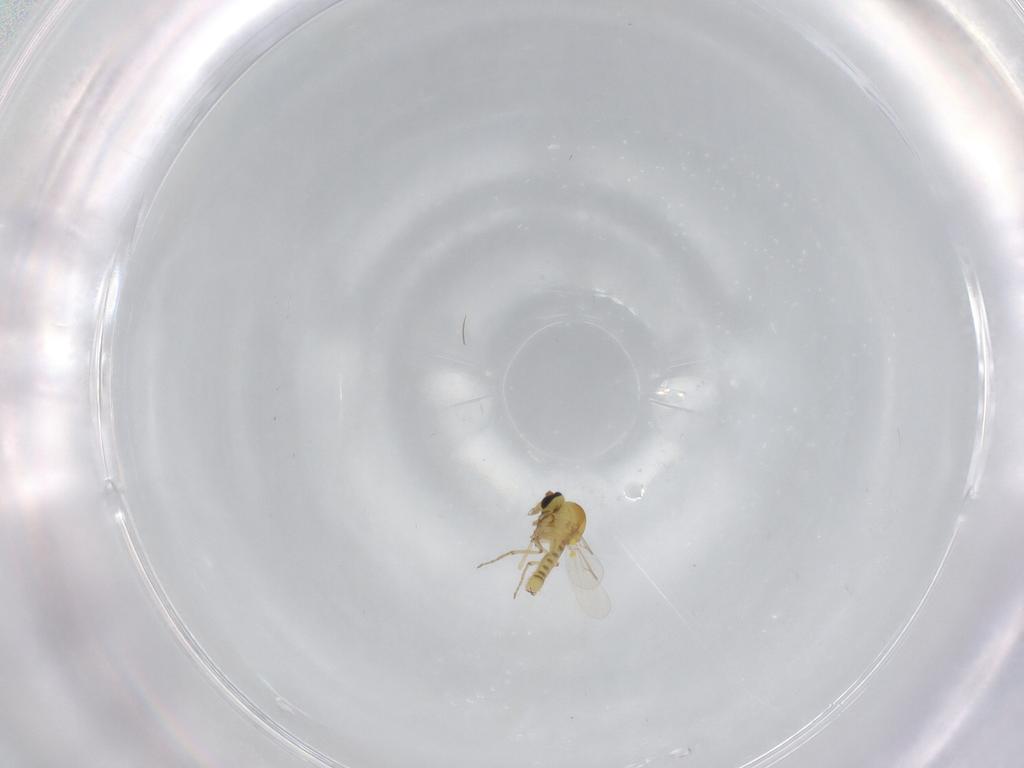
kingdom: Animalia
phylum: Arthropoda
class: Insecta
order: Diptera
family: Ceratopogonidae
